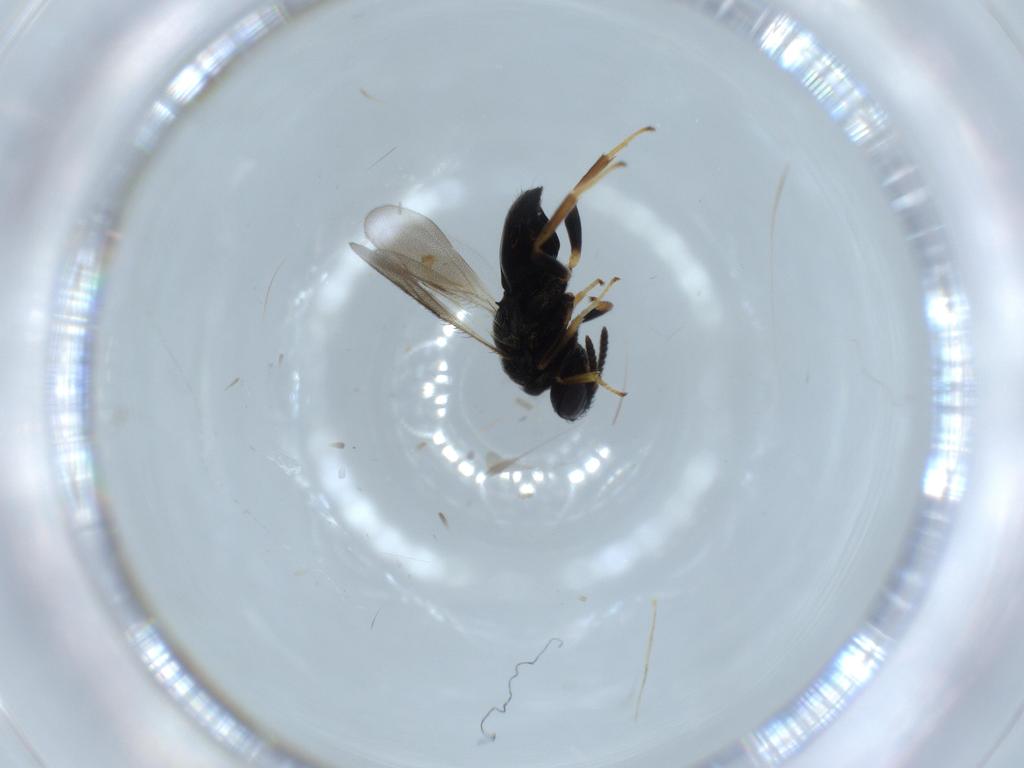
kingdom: Animalia
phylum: Arthropoda
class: Insecta
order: Hymenoptera
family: Pteromalidae
